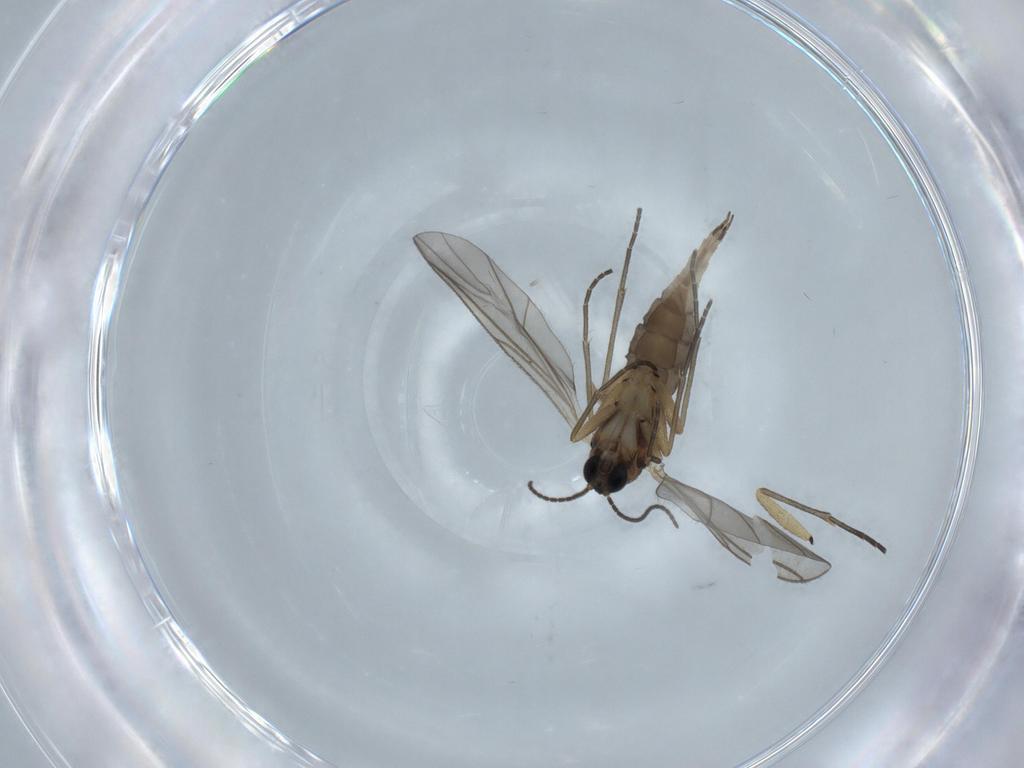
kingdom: Animalia
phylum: Arthropoda
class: Insecta
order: Diptera
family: Sciaridae
